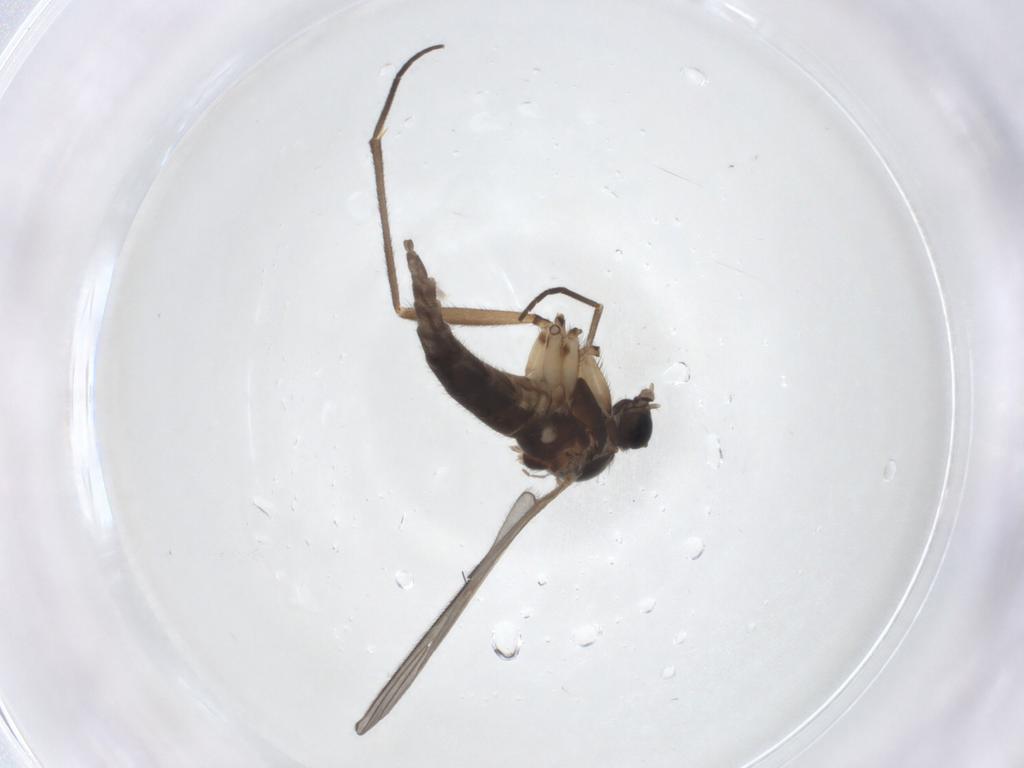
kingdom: Animalia
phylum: Arthropoda
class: Insecta
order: Diptera
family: Sciaridae
